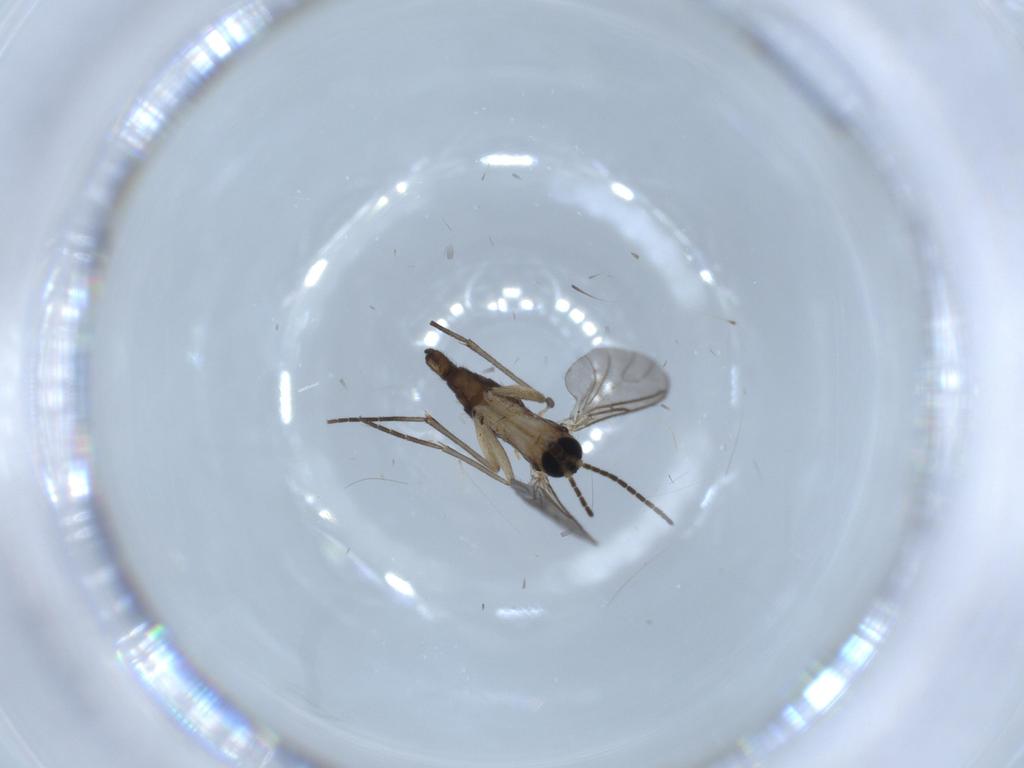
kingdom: Animalia
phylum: Arthropoda
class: Insecta
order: Diptera
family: Sciaridae
